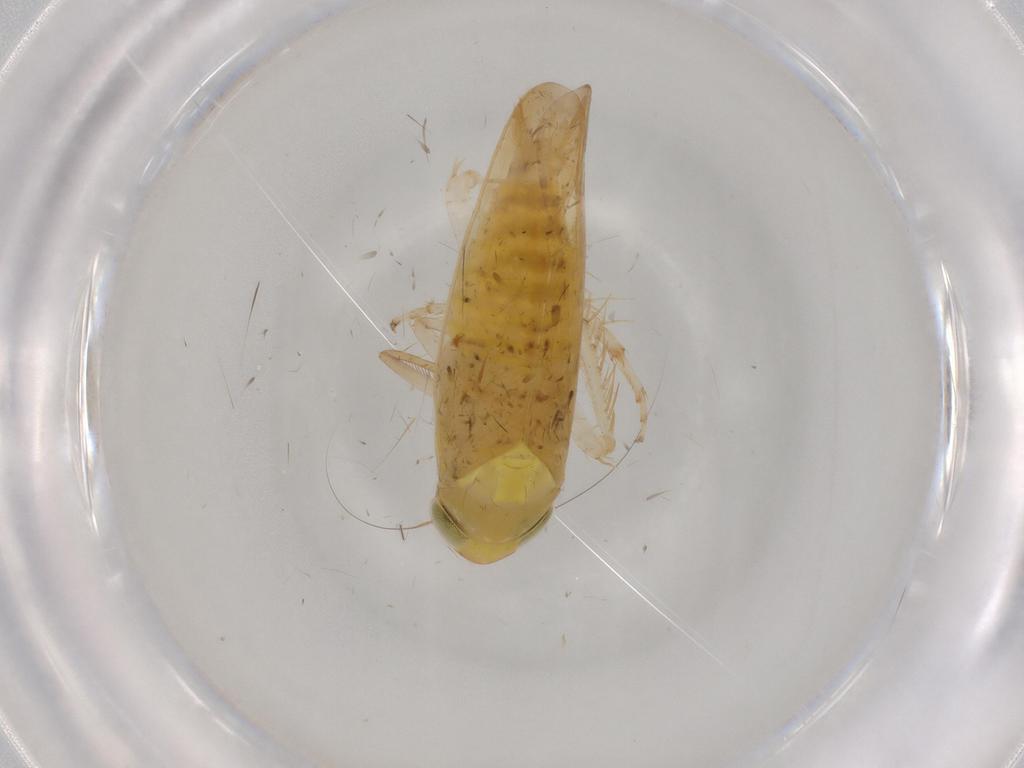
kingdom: Animalia
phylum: Arthropoda
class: Insecta
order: Hemiptera
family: Cicadellidae
